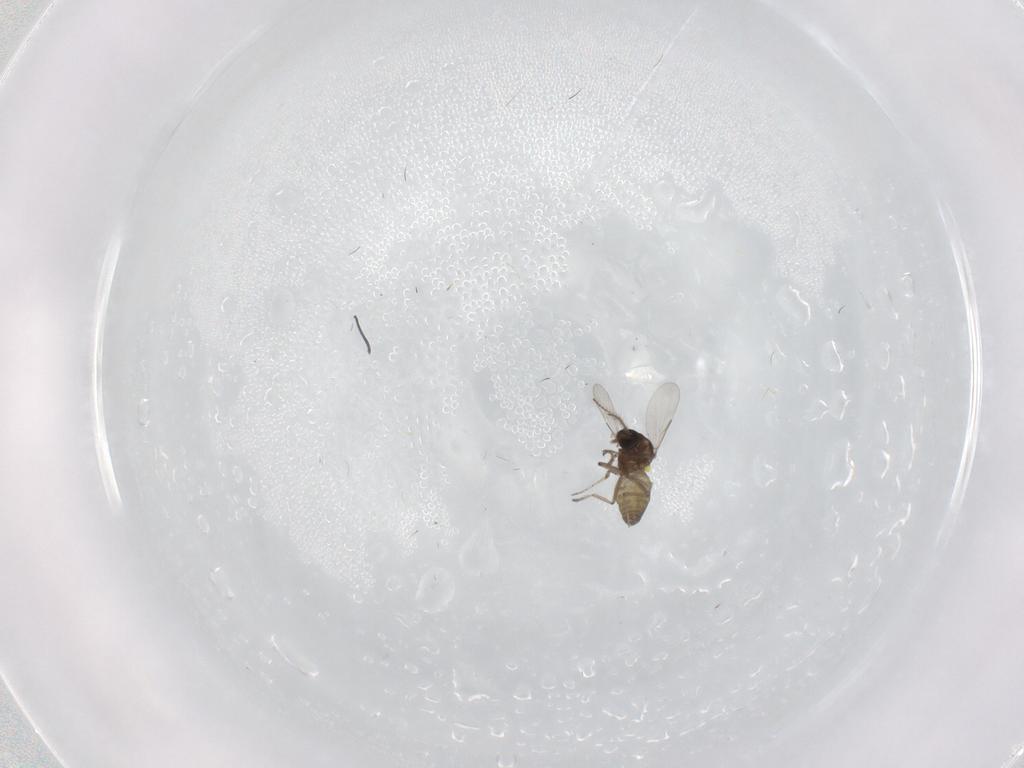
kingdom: Animalia
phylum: Arthropoda
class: Insecta
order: Diptera
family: Ceratopogonidae
